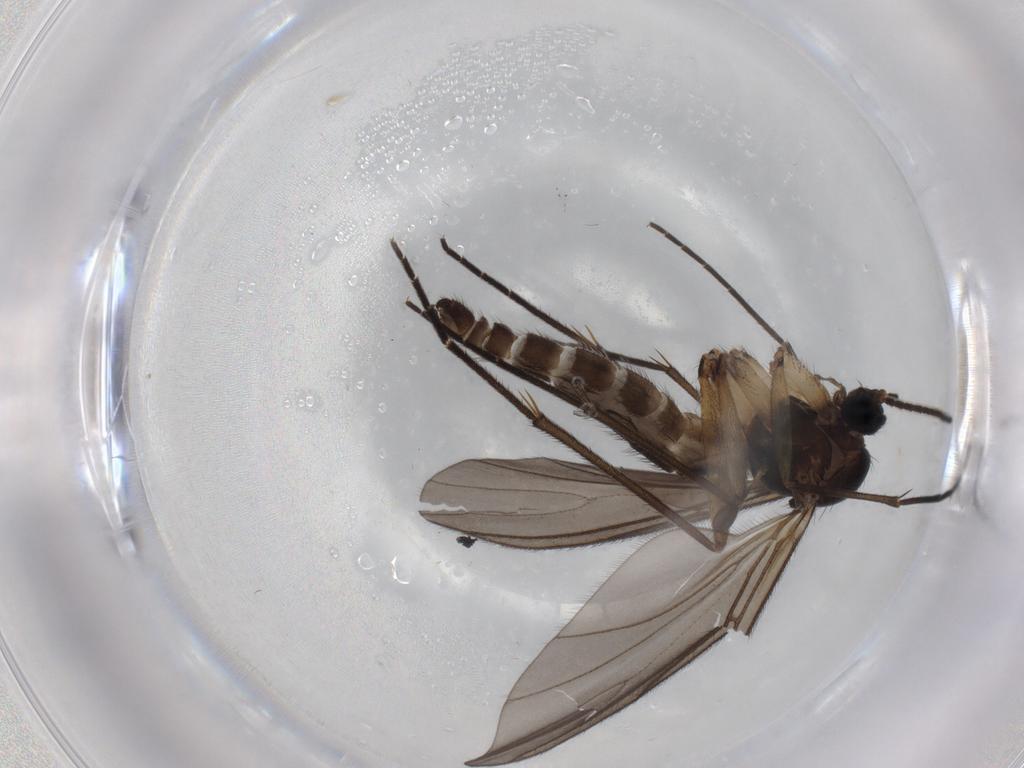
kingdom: Animalia
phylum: Arthropoda
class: Insecta
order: Diptera
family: Sciaridae
